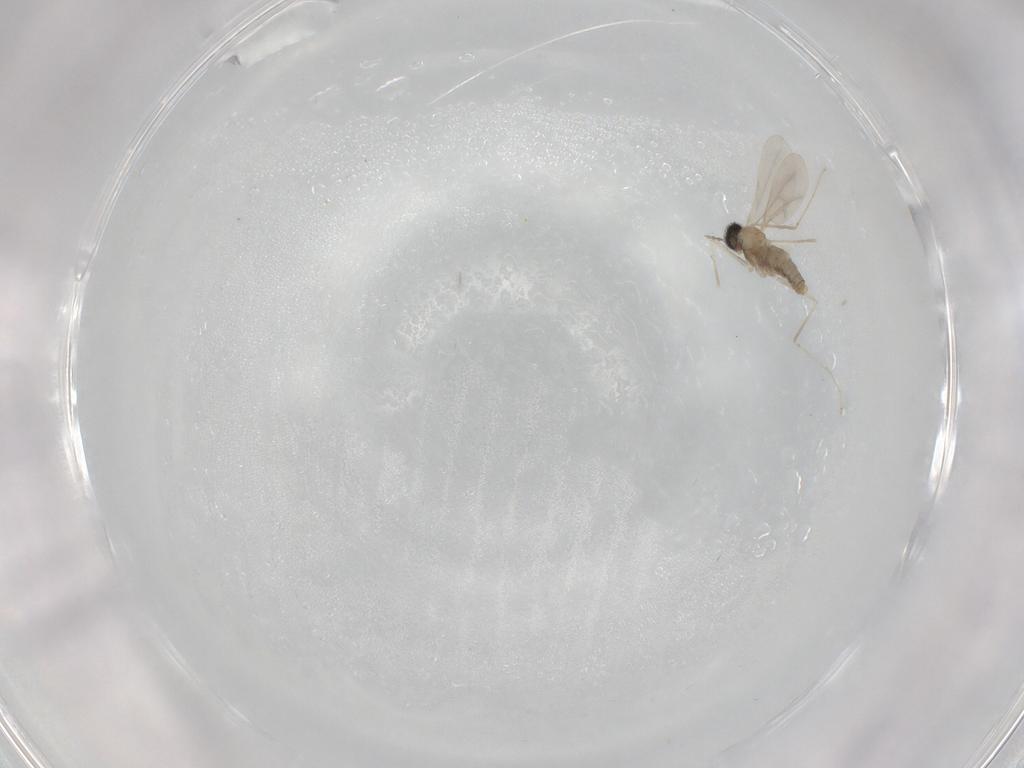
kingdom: Animalia
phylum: Arthropoda
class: Insecta
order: Diptera
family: Cecidomyiidae
